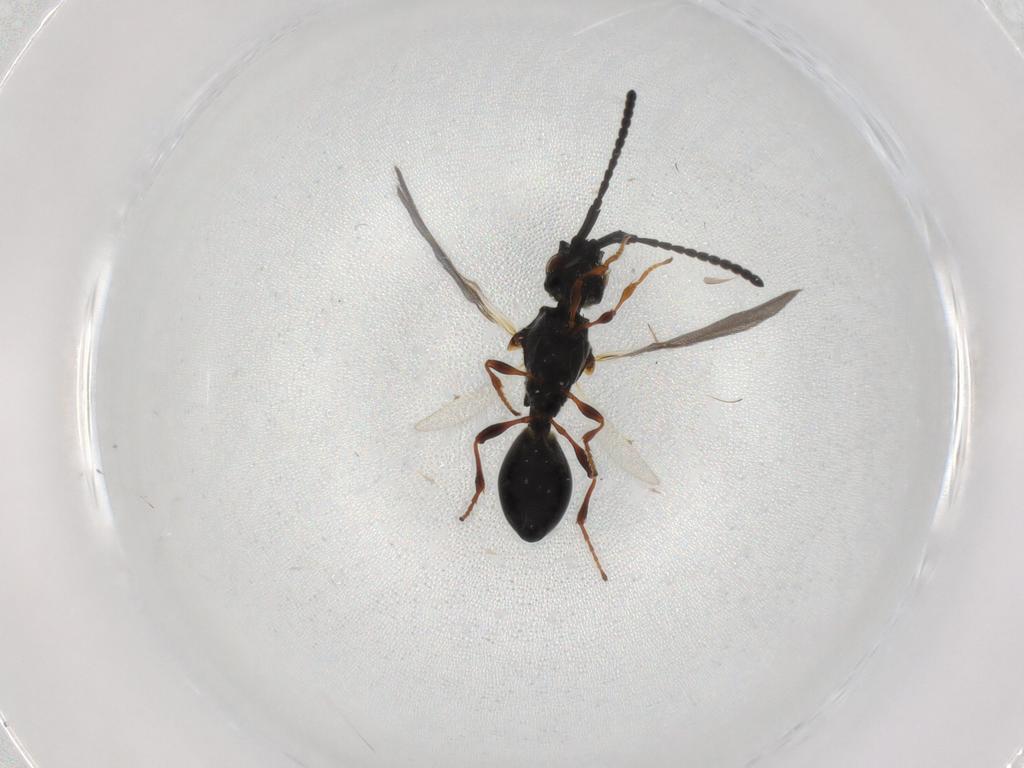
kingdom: Animalia
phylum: Arthropoda
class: Insecta
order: Hymenoptera
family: Diapriidae
